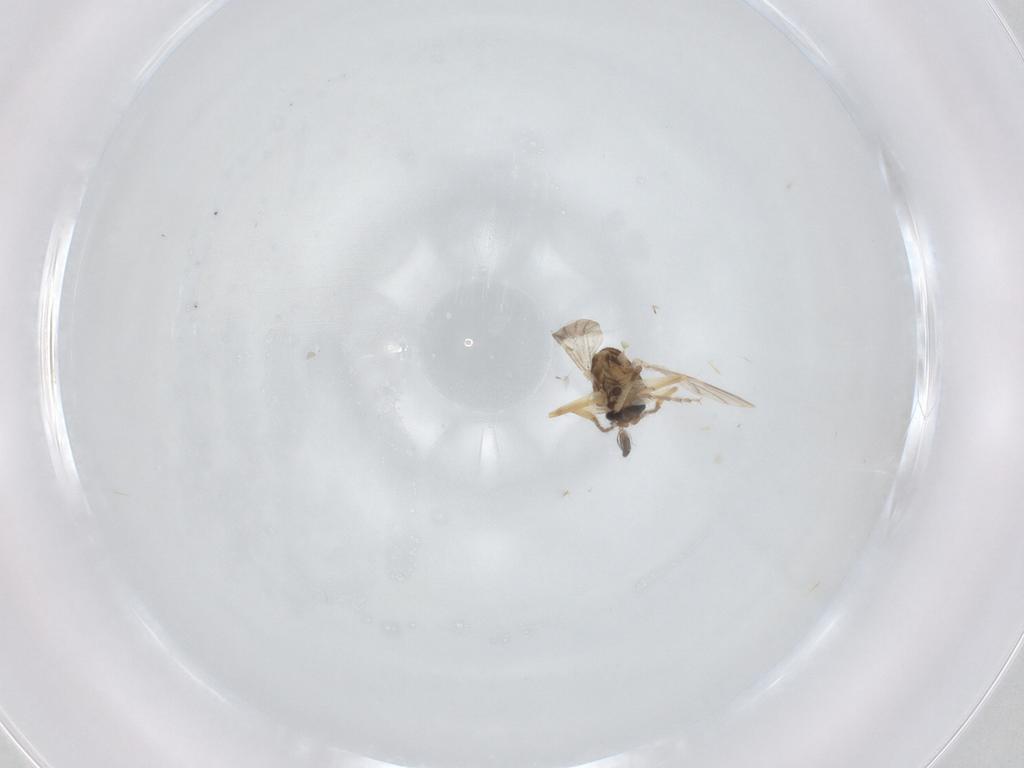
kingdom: Animalia
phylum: Arthropoda
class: Insecta
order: Diptera
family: Ceratopogonidae
